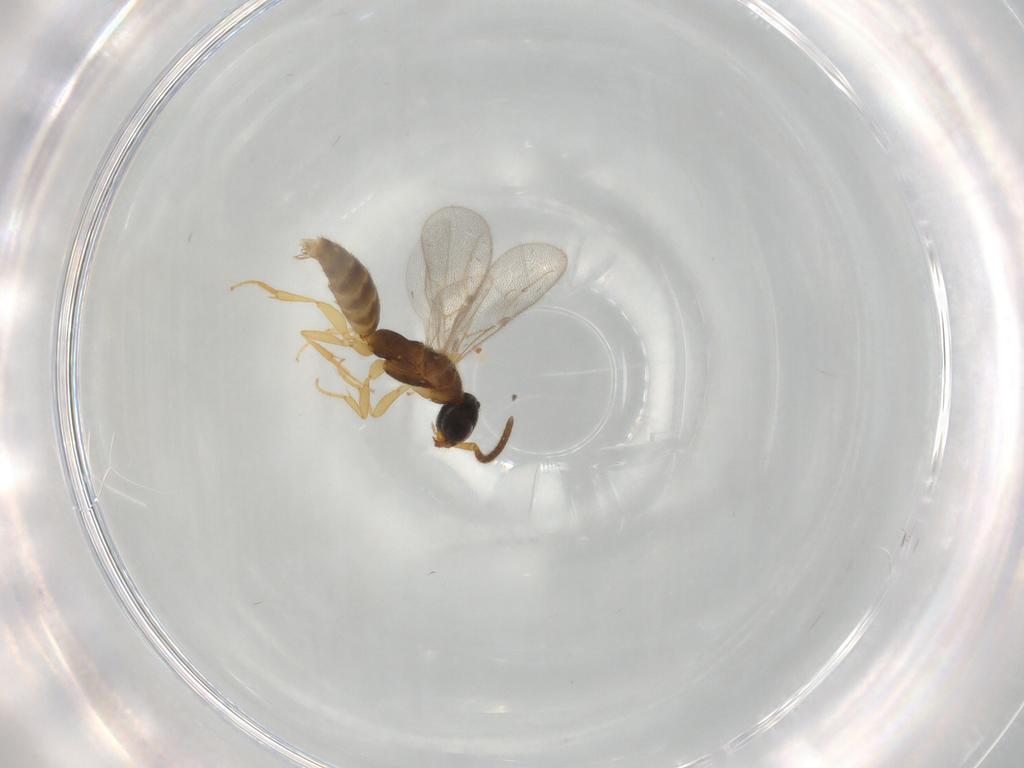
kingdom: Animalia
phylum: Arthropoda
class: Insecta
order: Hymenoptera
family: Bethylidae
